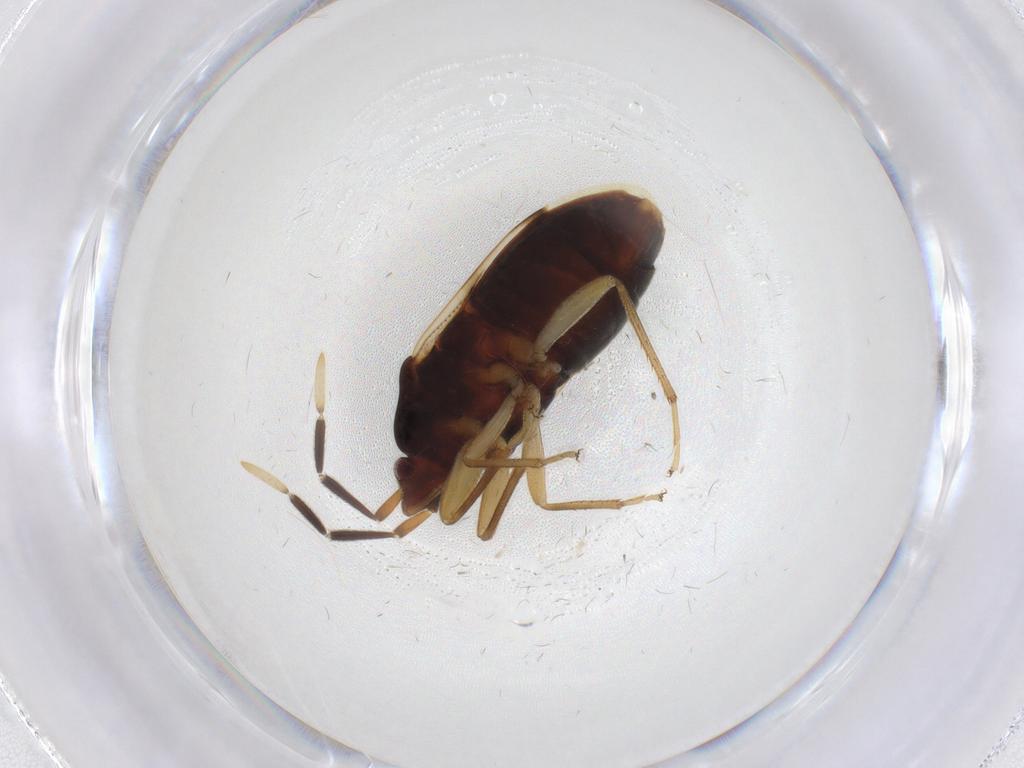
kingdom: Animalia
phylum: Arthropoda
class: Insecta
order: Hemiptera
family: Rhyparochromidae
